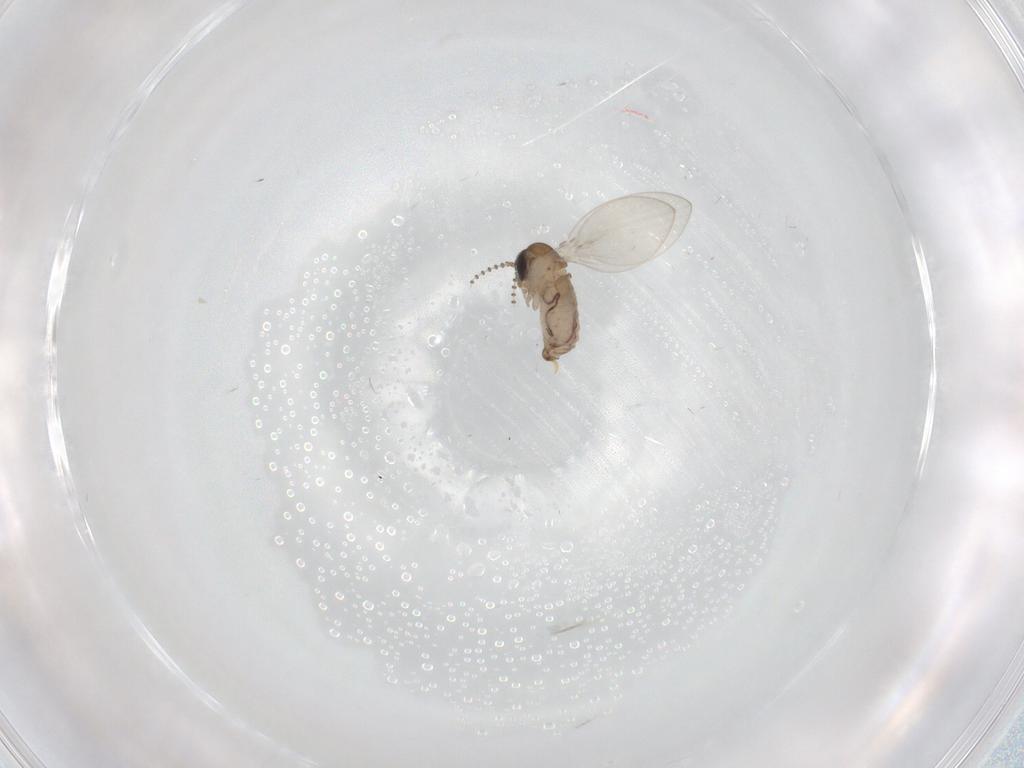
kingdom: Animalia
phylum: Arthropoda
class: Insecta
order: Diptera
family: Psychodidae
